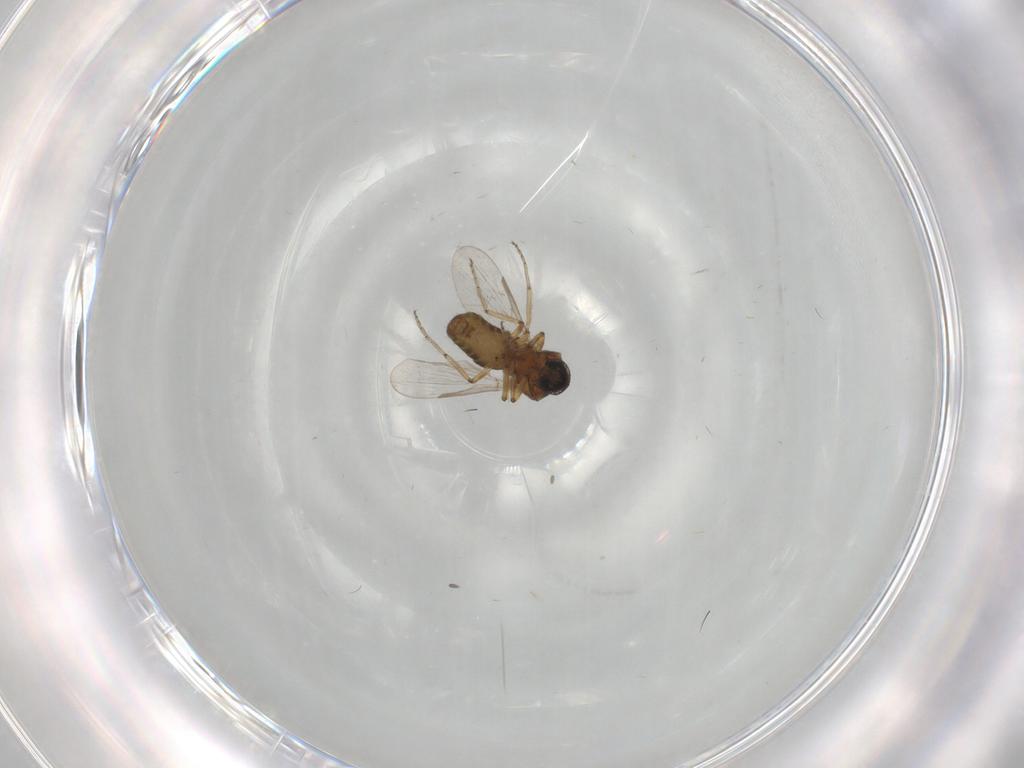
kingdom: Animalia
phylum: Arthropoda
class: Insecta
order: Diptera
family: Ceratopogonidae
